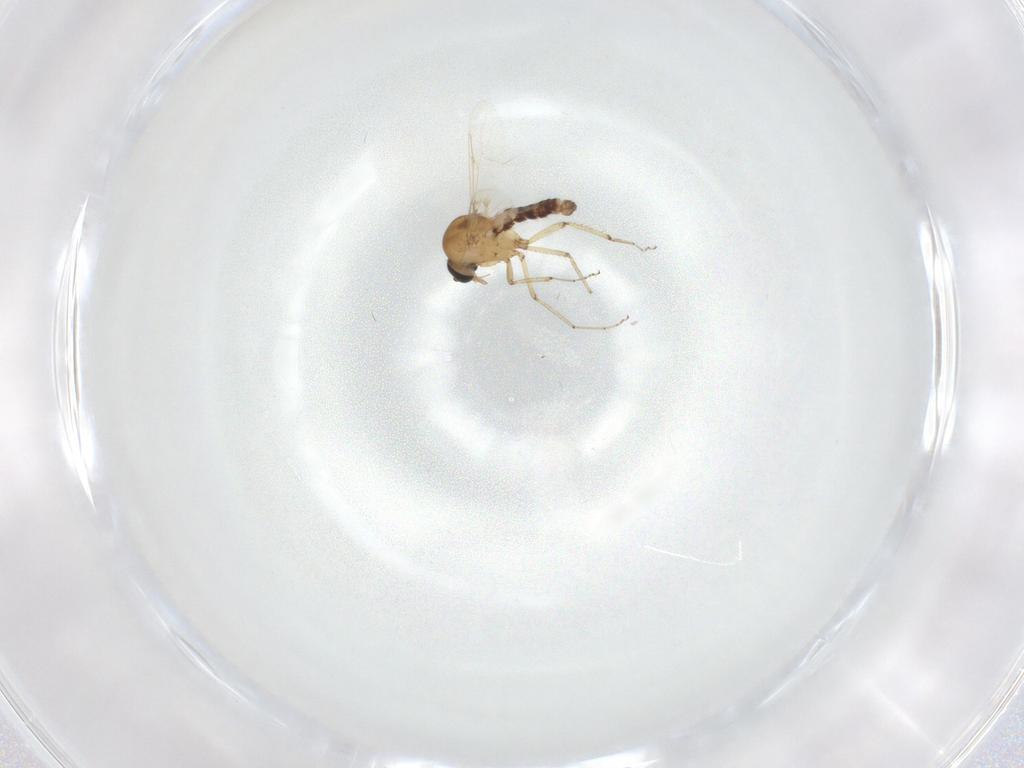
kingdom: Animalia
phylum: Arthropoda
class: Insecta
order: Diptera
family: Ceratopogonidae
